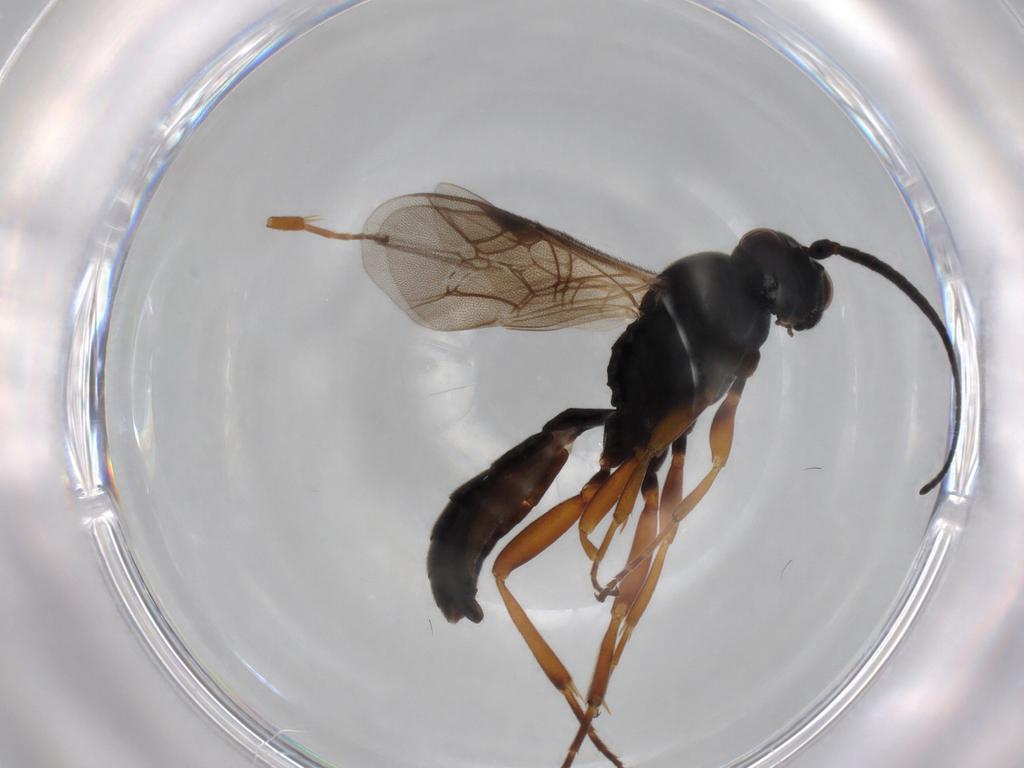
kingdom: Animalia
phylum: Arthropoda
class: Insecta
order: Hymenoptera
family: Ichneumonidae
